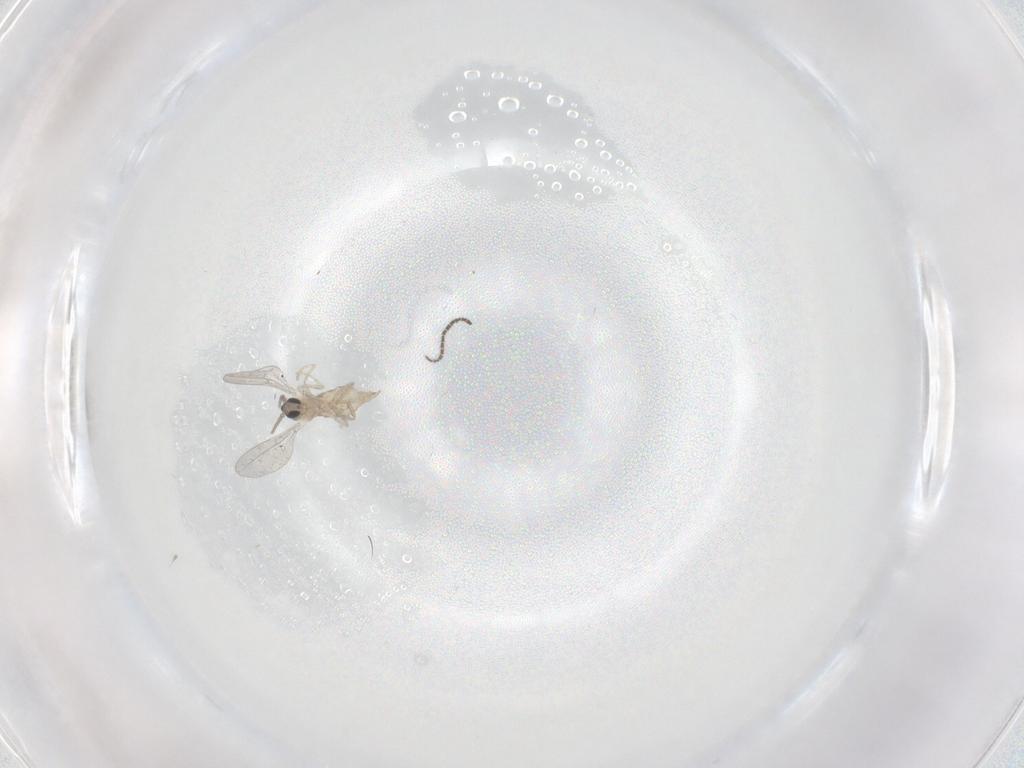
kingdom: Animalia
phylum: Arthropoda
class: Insecta
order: Diptera
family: Cecidomyiidae
